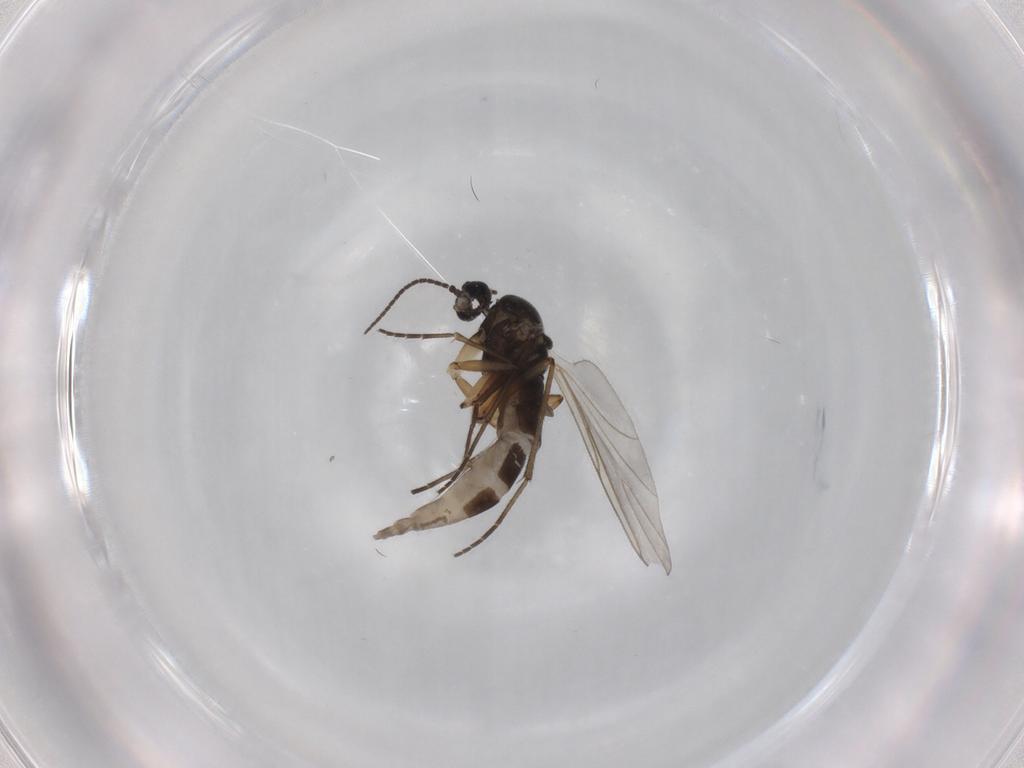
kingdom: Animalia
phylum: Arthropoda
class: Insecta
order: Diptera
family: Sciaridae
